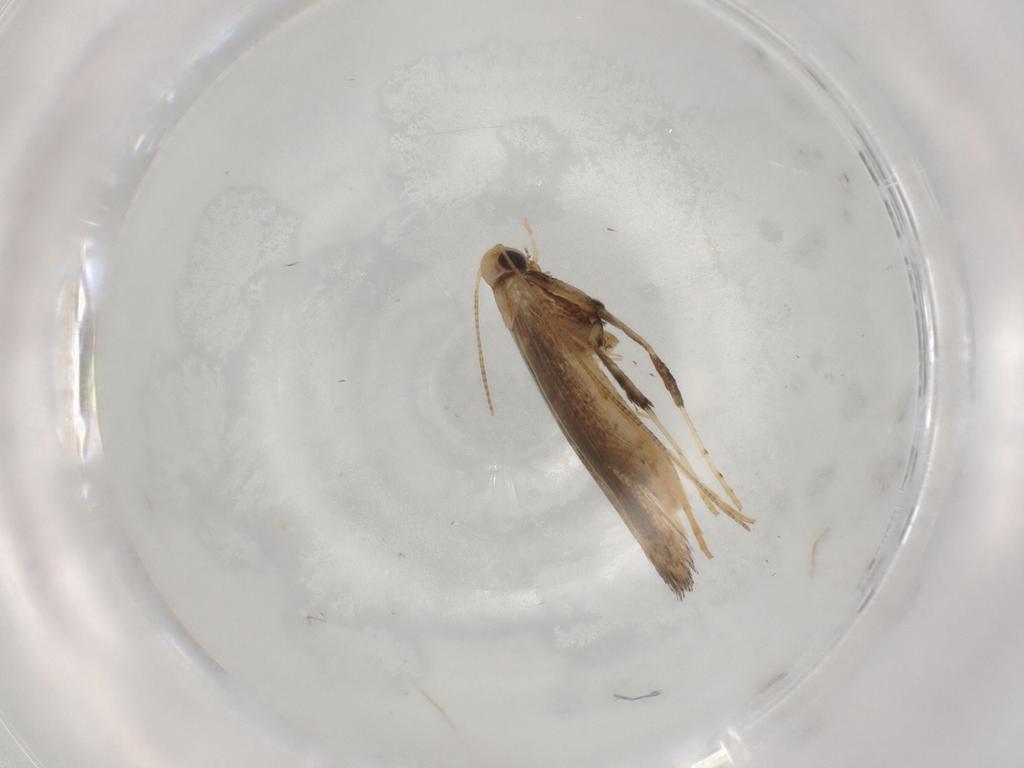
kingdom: Animalia
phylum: Arthropoda
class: Insecta
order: Lepidoptera
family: Gracillariidae
